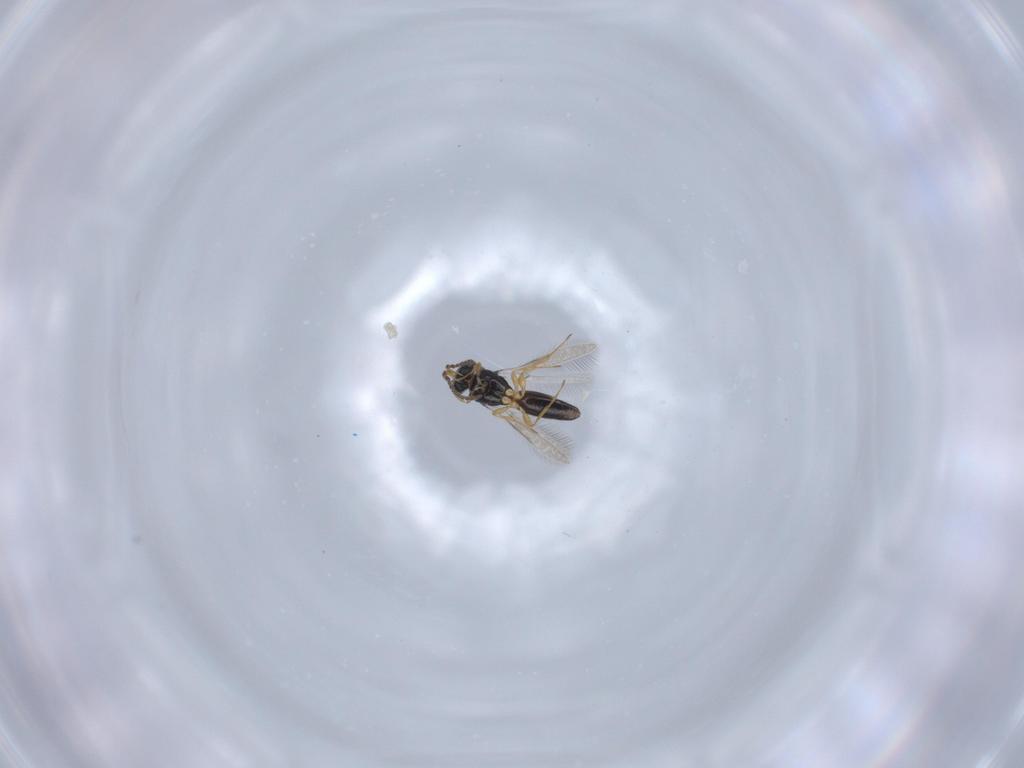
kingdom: Animalia
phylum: Arthropoda
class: Insecta
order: Hymenoptera
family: Scelionidae
